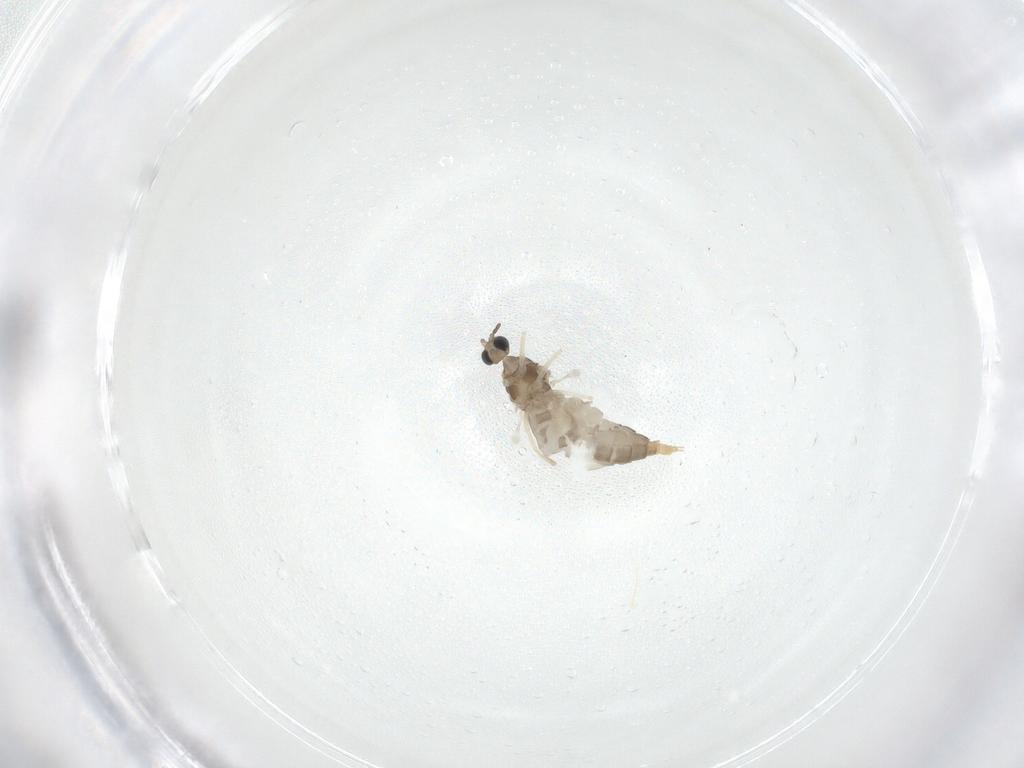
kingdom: Animalia
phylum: Arthropoda
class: Insecta
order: Diptera
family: Cecidomyiidae
